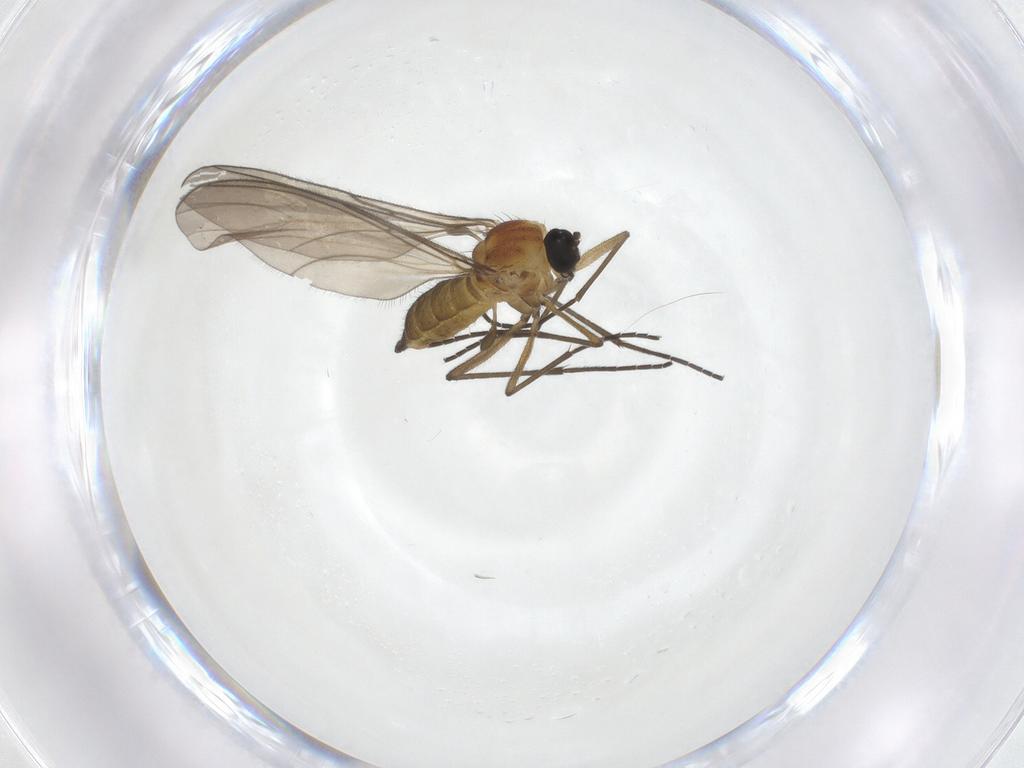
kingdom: Animalia
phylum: Arthropoda
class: Insecta
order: Diptera
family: Sciaridae
